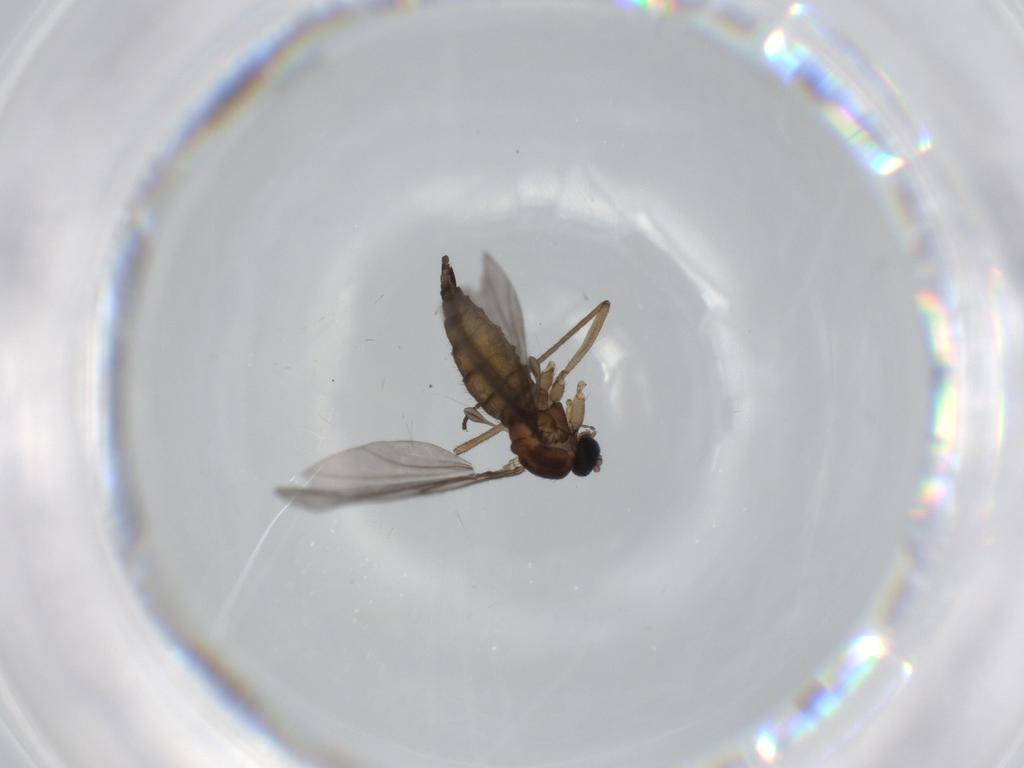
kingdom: Animalia
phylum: Arthropoda
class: Insecta
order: Diptera
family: Sciaridae
